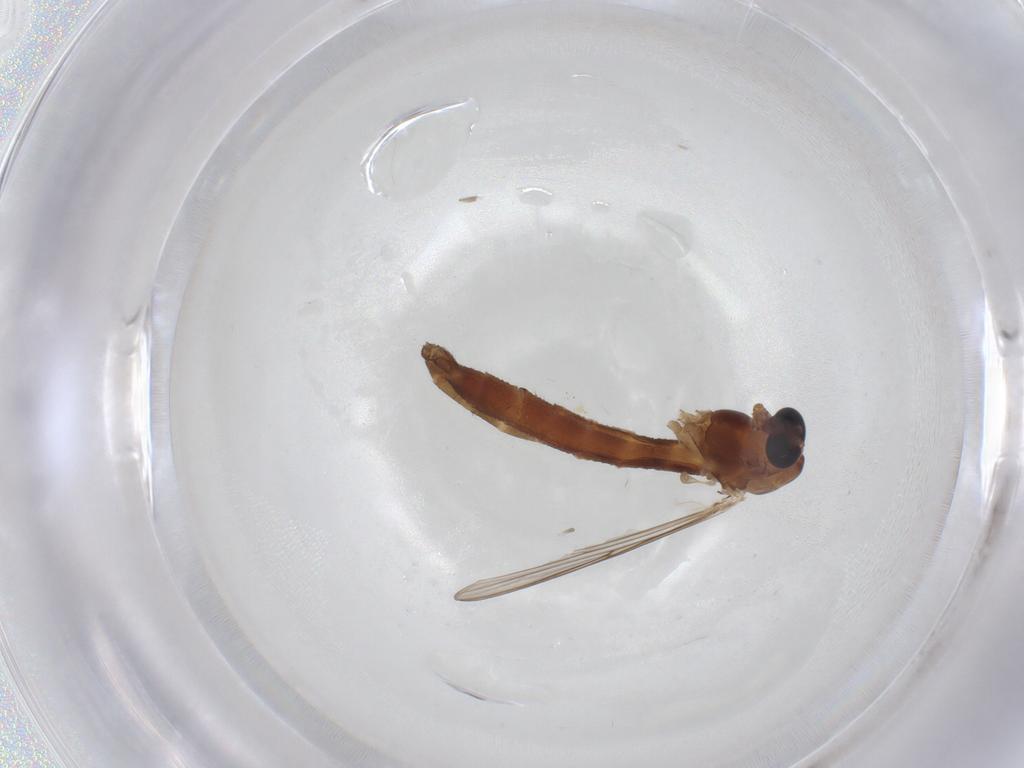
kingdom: Animalia
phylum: Arthropoda
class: Insecta
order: Diptera
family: Chironomidae
